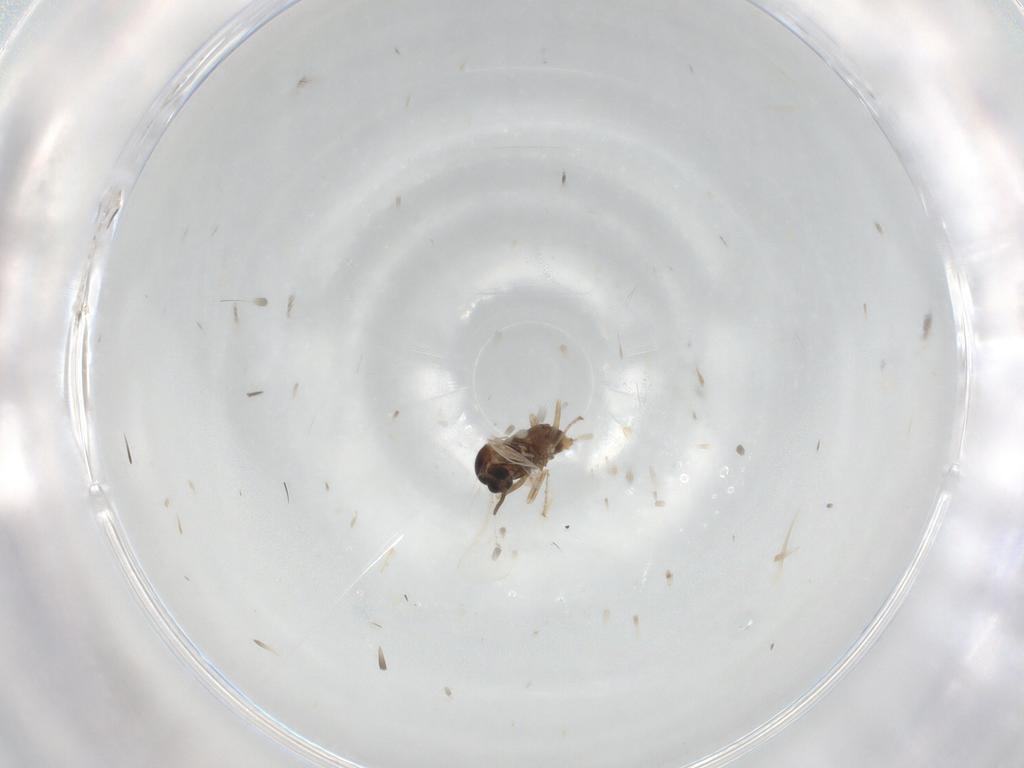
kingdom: Animalia
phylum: Arthropoda
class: Insecta
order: Diptera
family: Cecidomyiidae
